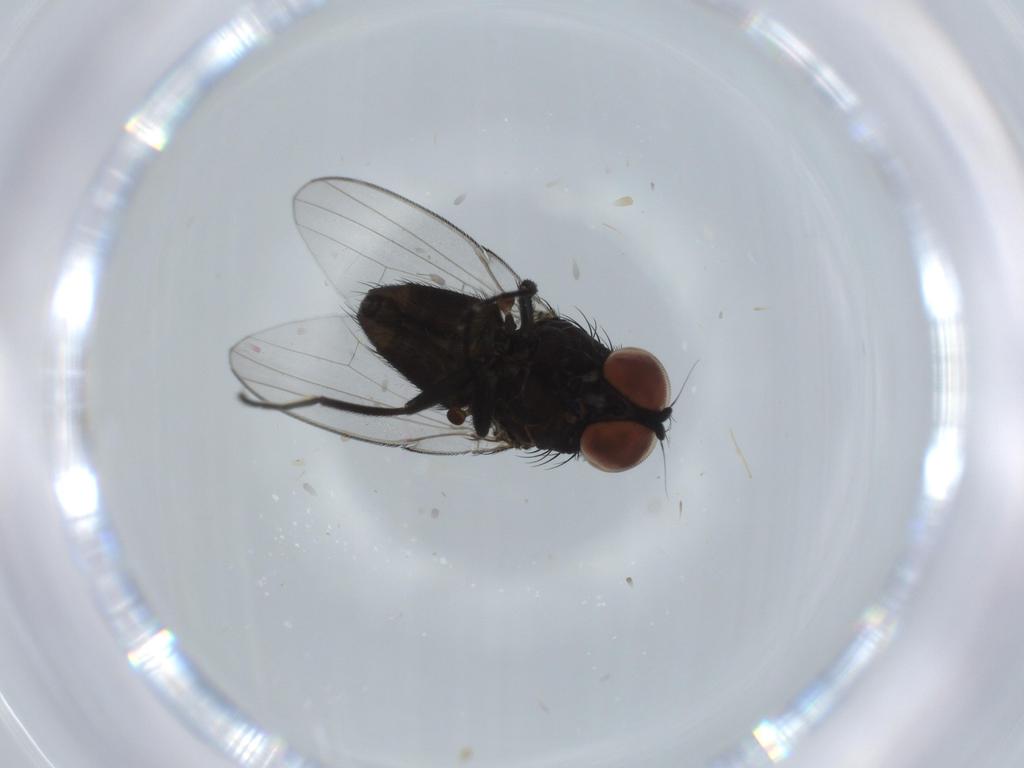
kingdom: Animalia
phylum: Arthropoda
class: Insecta
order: Diptera
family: Milichiidae
